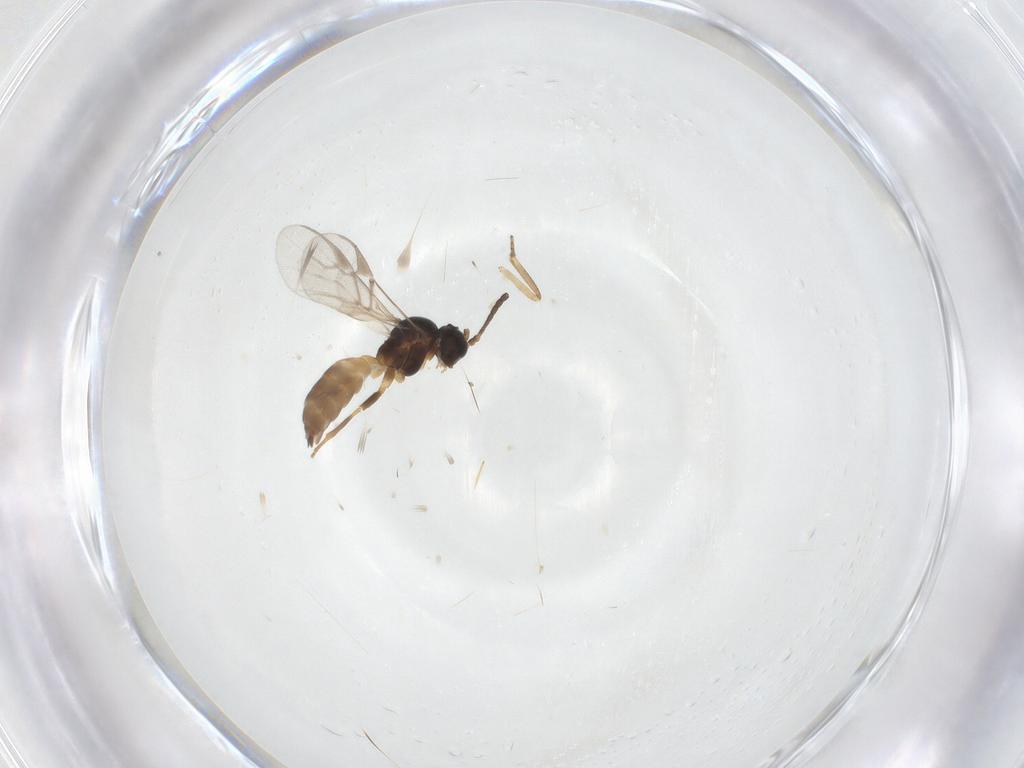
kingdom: Animalia
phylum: Arthropoda
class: Insecta
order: Hymenoptera
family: Braconidae
